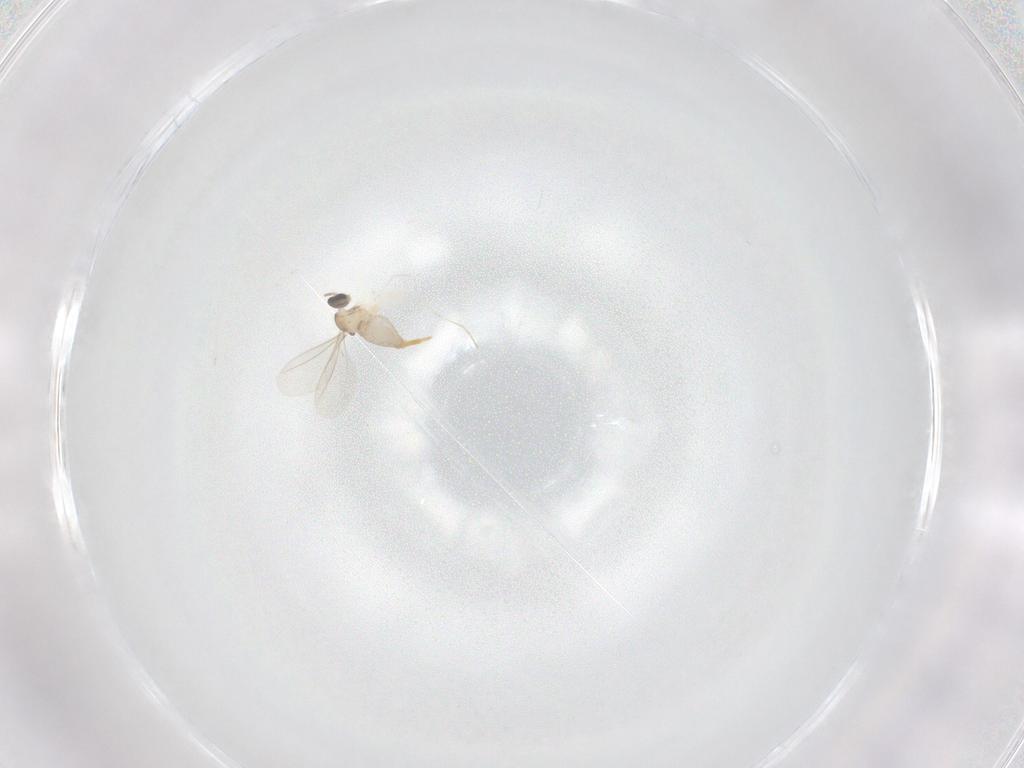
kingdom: Animalia
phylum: Arthropoda
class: Insecta
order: Diptera
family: Cecidomyiidae
